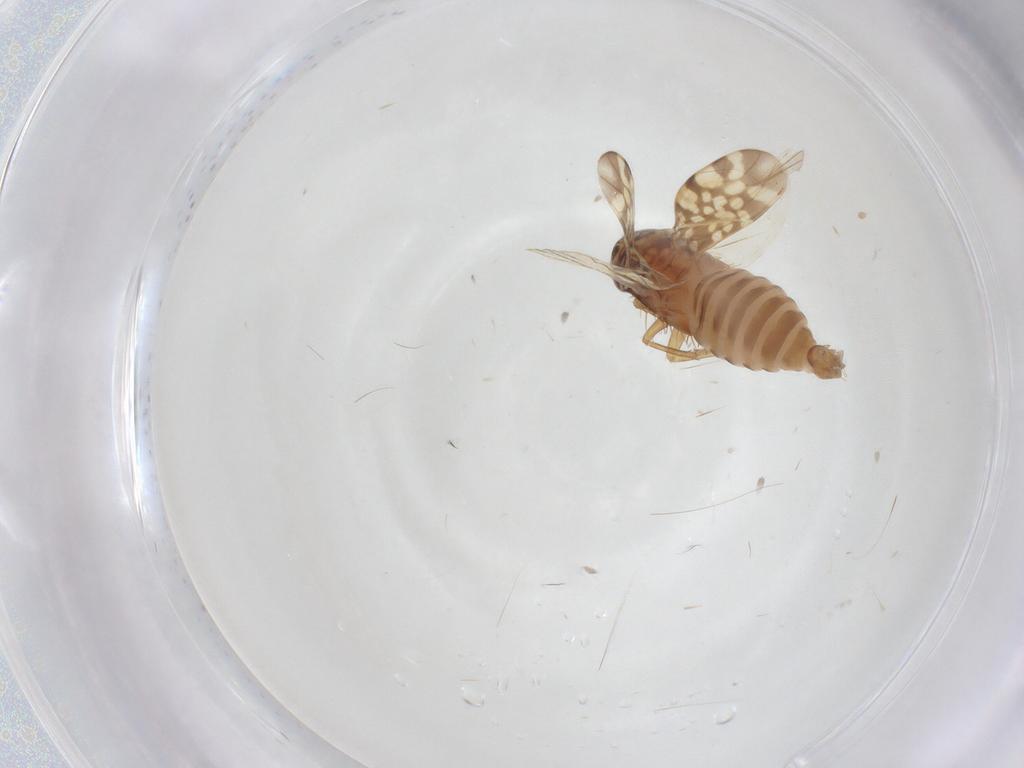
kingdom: Animalia
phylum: Arthropoda
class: Insecta
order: Hemiptera
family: Cicadellidae
